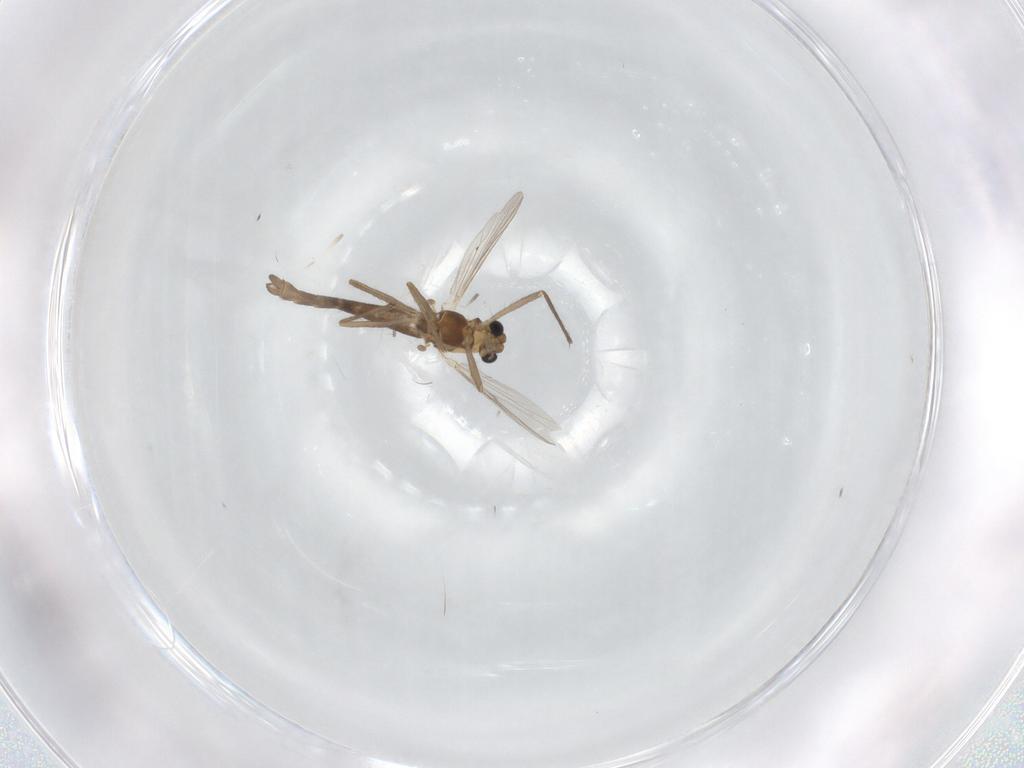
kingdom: Animalia
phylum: Arthropoda
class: Insecta
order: Diptera
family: Chironomidae
